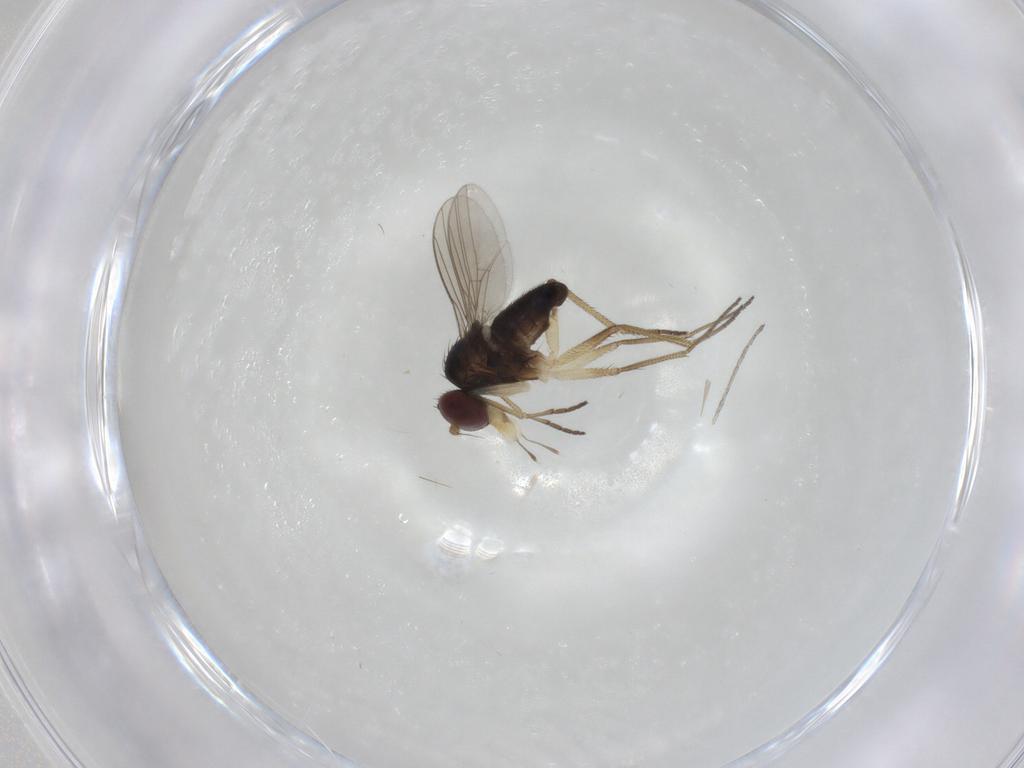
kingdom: Animalia
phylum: Arthropoda
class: Insecta
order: Diptera
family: Dolichopodidae
